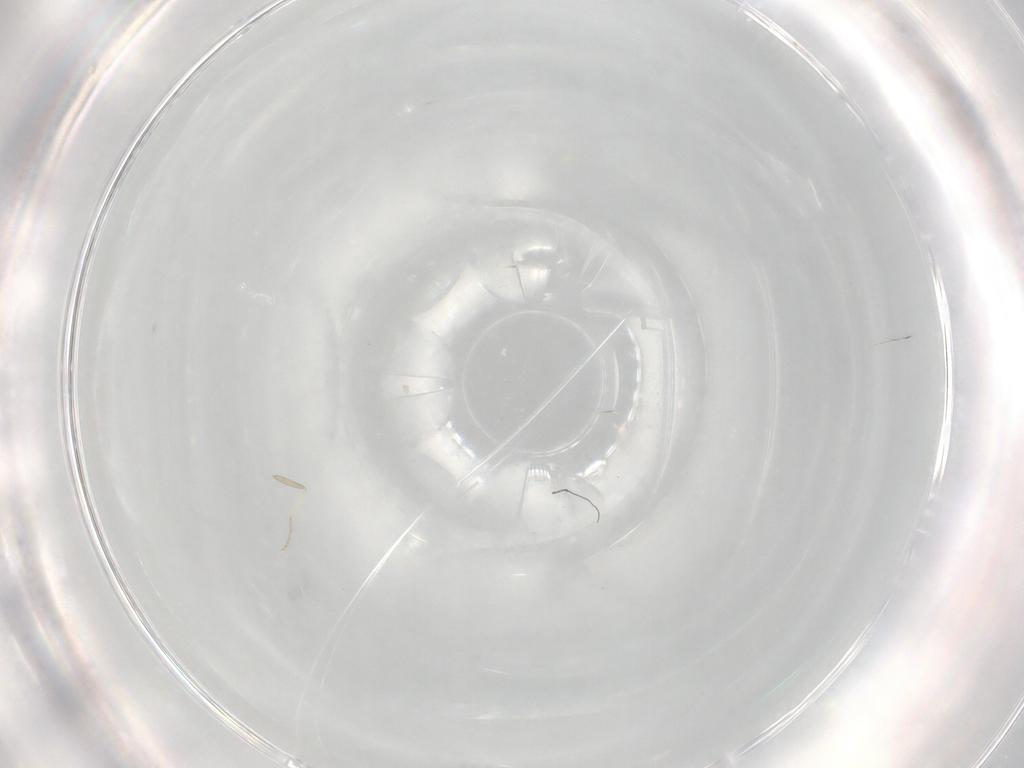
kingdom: Animalia
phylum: Arthropoda
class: Insecta
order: Diptera
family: Cecidomyiidae
